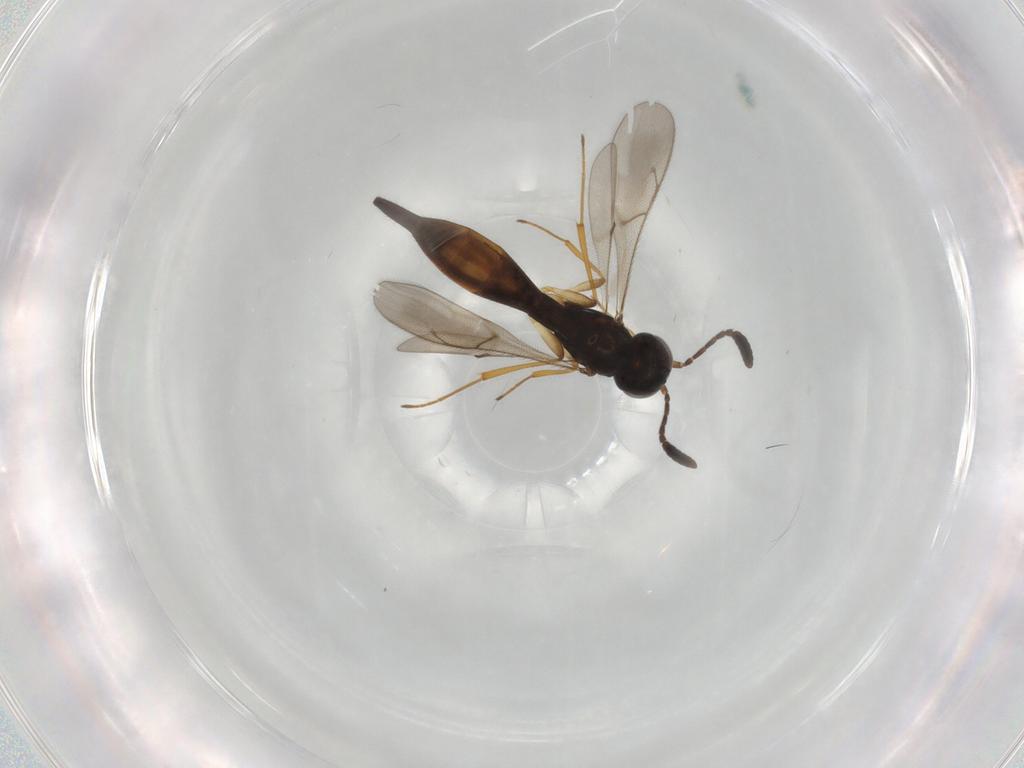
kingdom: Animalia
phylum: Arthropoda
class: Insecta
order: Hymenoptera
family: Scelionidae
